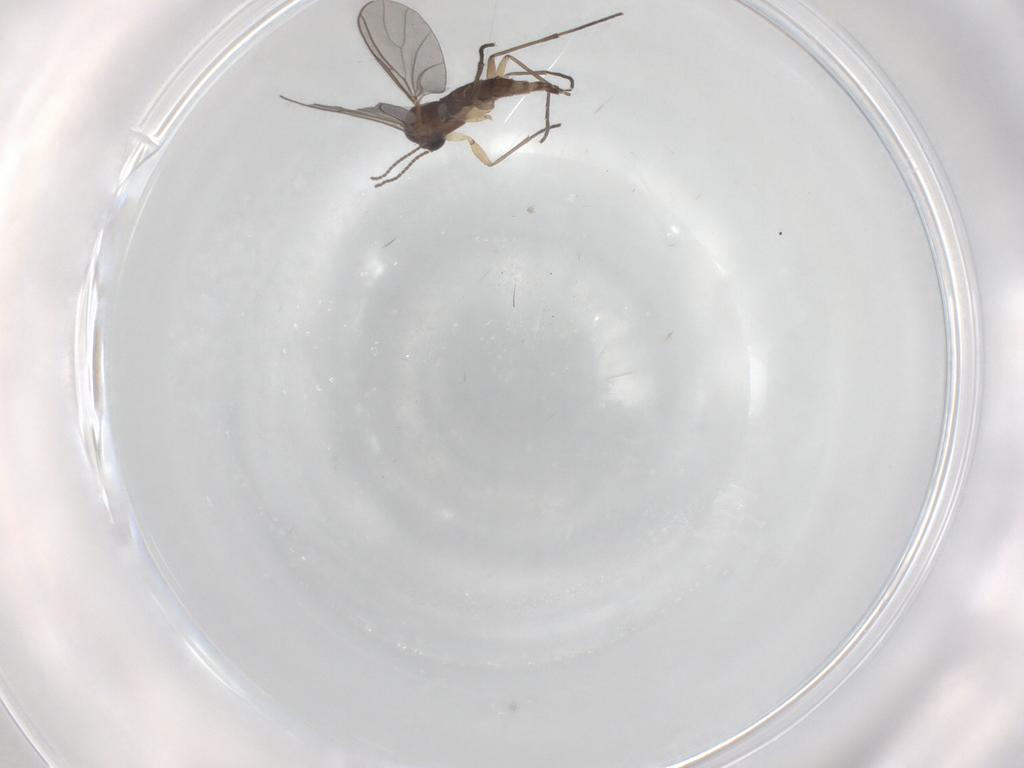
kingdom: Animalia
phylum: Arthropoda
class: Insecta
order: Diptera
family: Sciaridae
